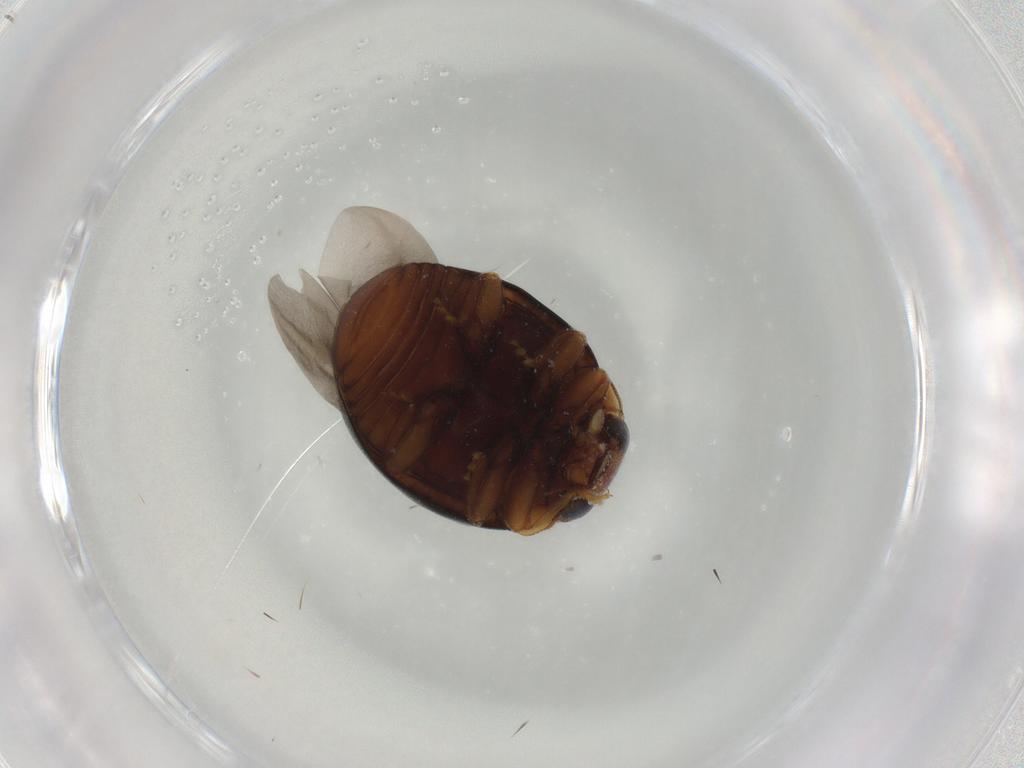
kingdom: Animalia
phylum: Arthropoda
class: Insecta
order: Coleoptera
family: Coccinellidae
